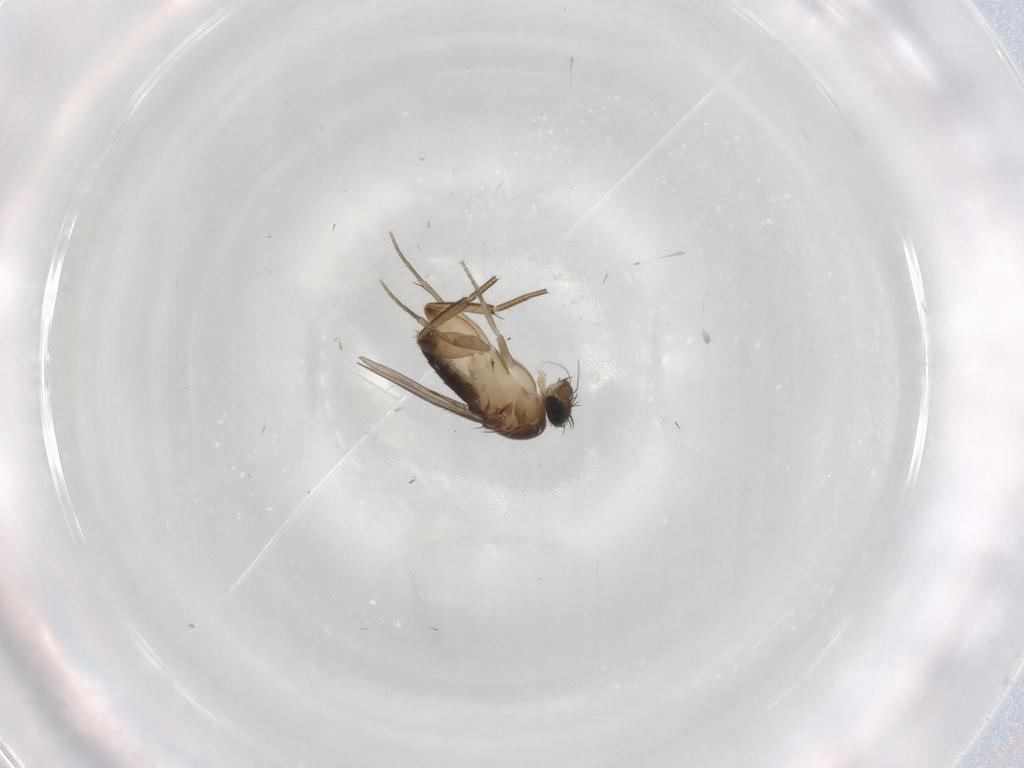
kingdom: Animalia
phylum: Arthropoda
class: Insecta
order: Diptera
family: Phoridae
